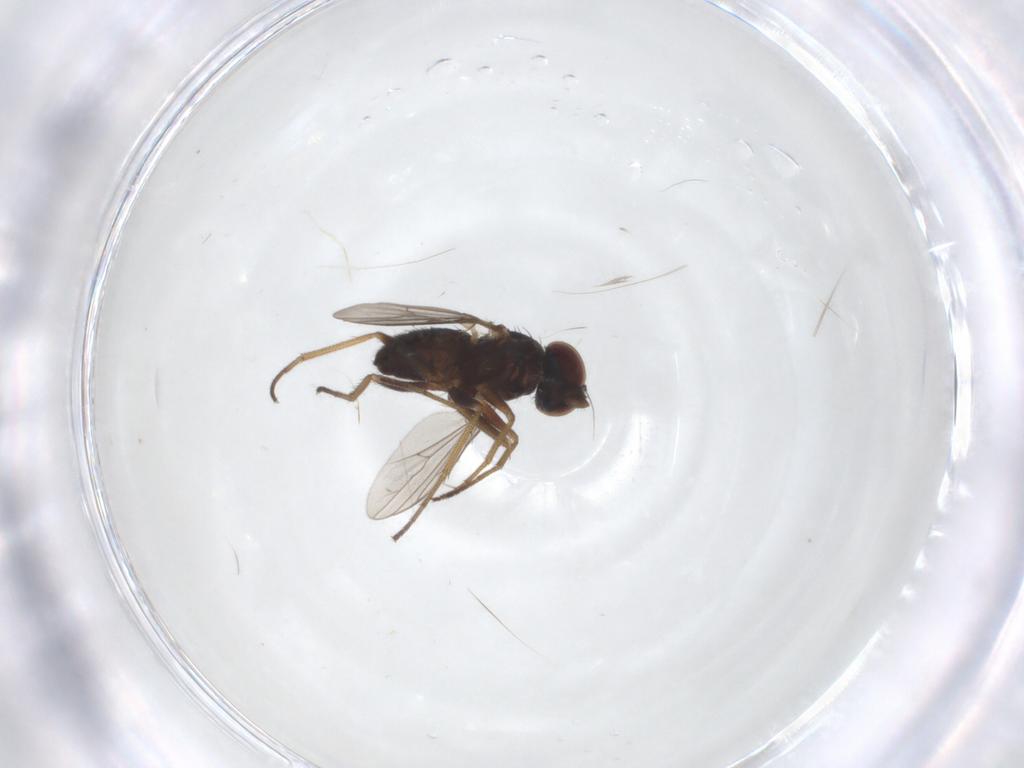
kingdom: Animalia
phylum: Arthropoda
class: Insecta
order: Diptera
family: Dolichopodidae
